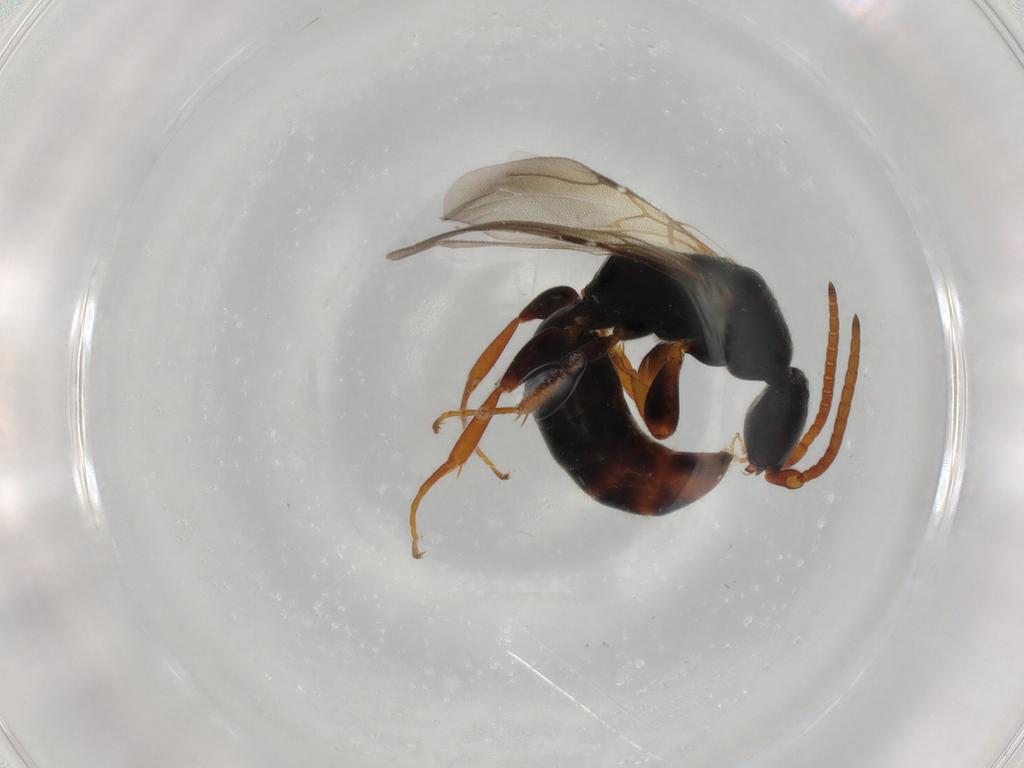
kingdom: Animalia
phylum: Arthropoda
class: Insecta
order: Hymenoptera
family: Bethylidae
